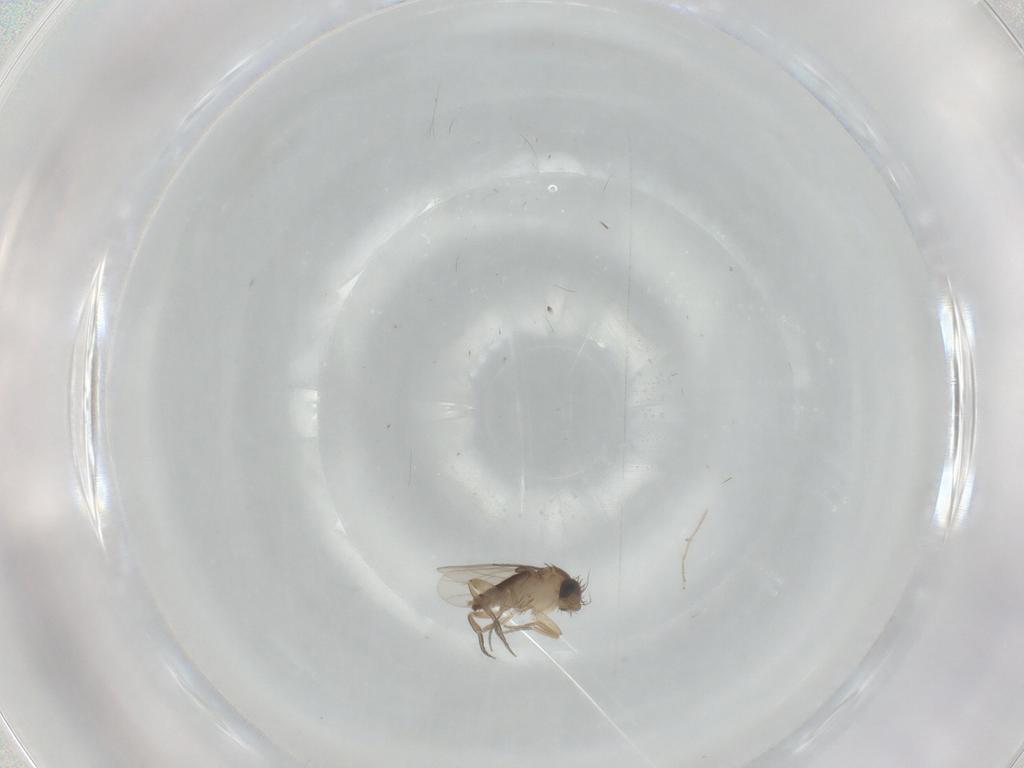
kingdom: Animalia
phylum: Arthropoda
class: Insecta
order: Diptera
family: Phoridae
